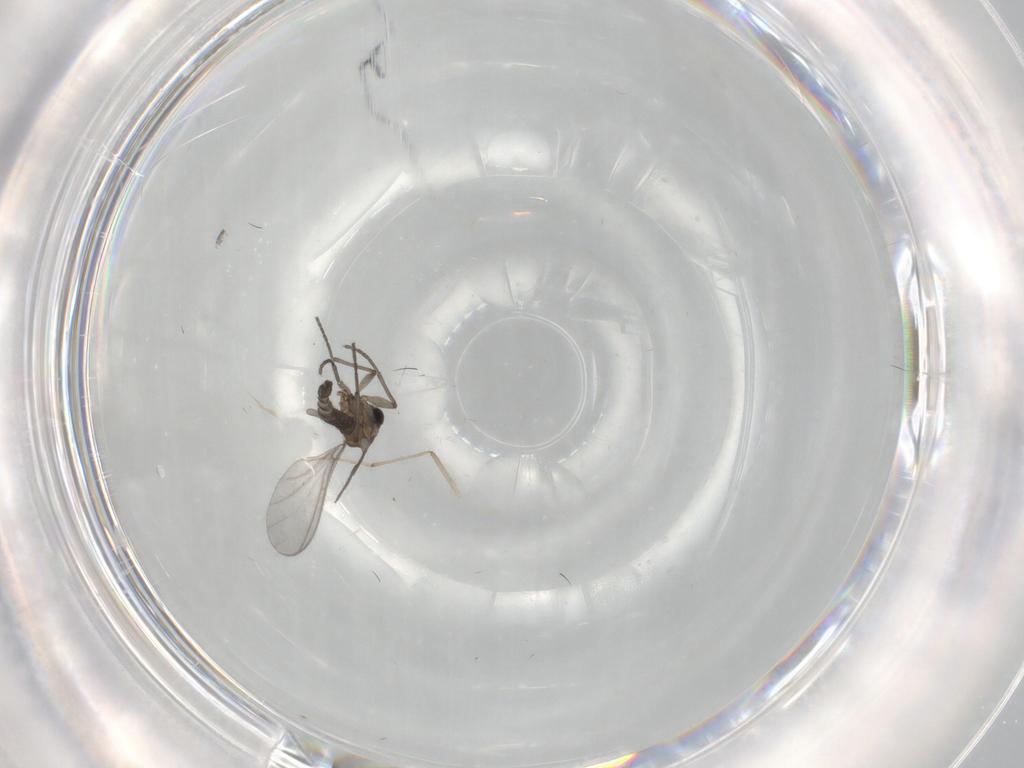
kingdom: Animalia
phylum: Arthropoda
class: Insecta
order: Diptera
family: Sciaridae
